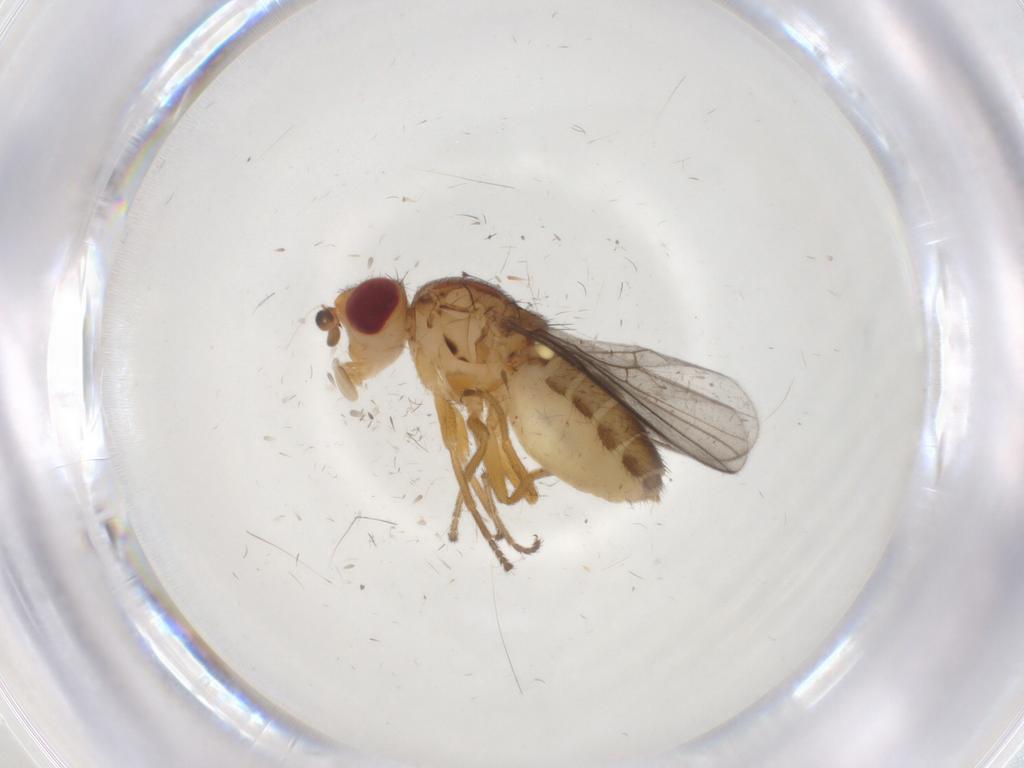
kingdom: Animalia
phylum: Arthropoda
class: Insecta
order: Diptera
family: Chloropidae
